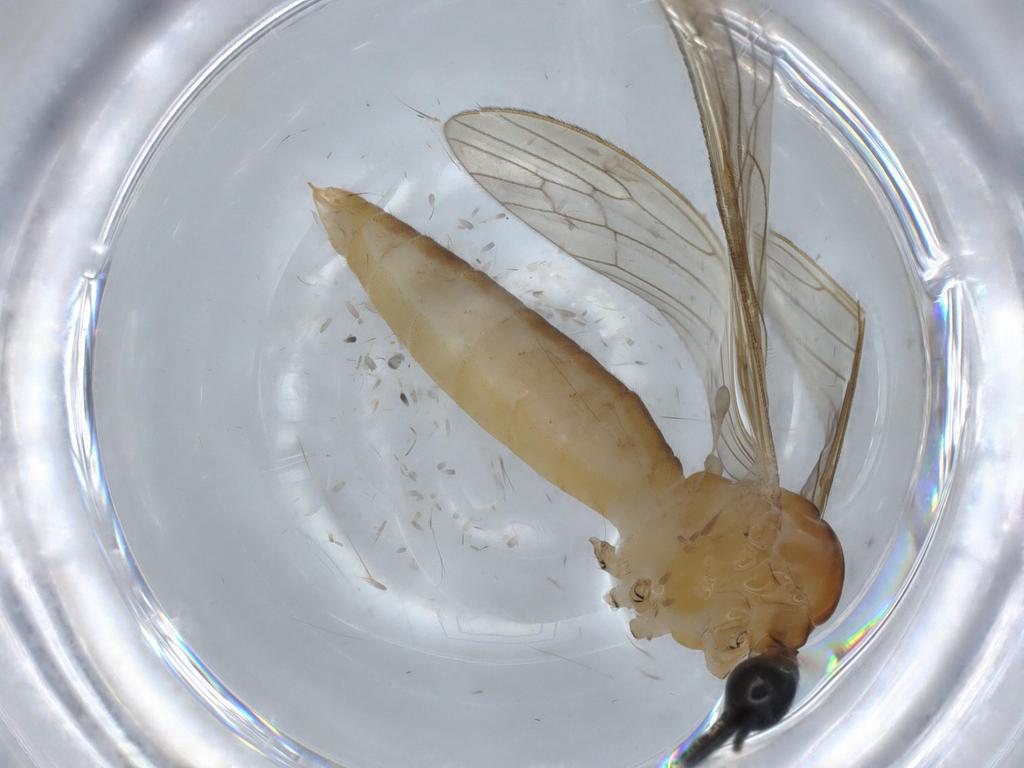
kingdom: Animalia
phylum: Arthropoda
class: Insecta
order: Diptera
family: Chironomidae
